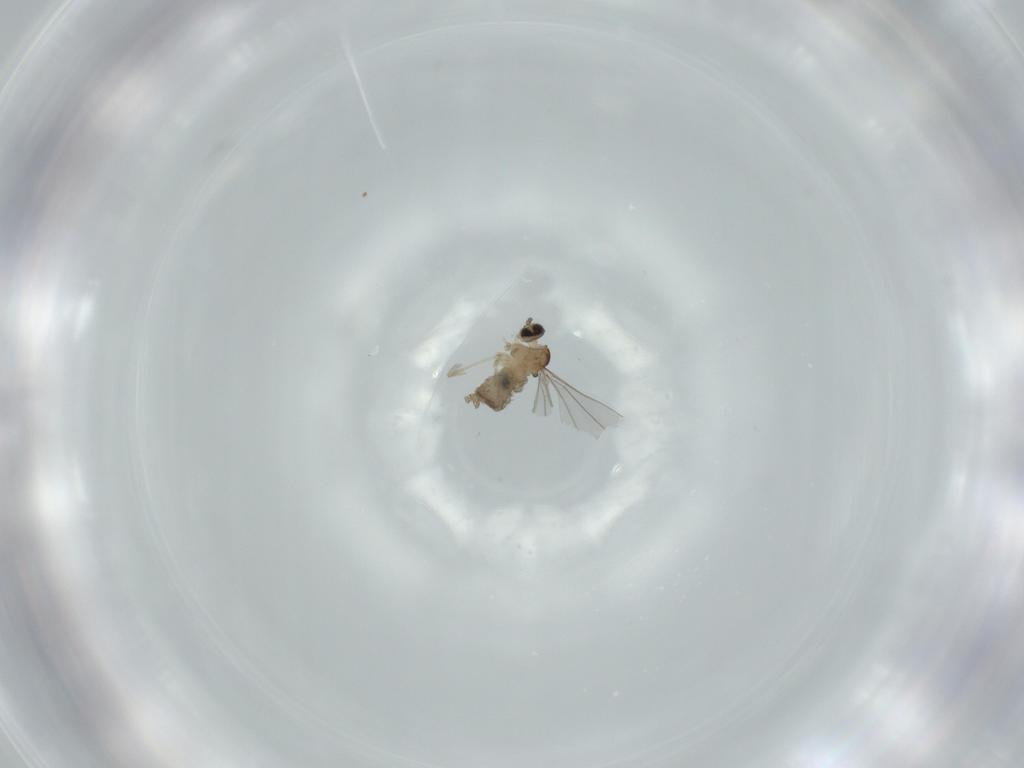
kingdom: Animalia
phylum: Arthropoda
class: Insecta
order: Diptera
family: Cecidomyiidae
